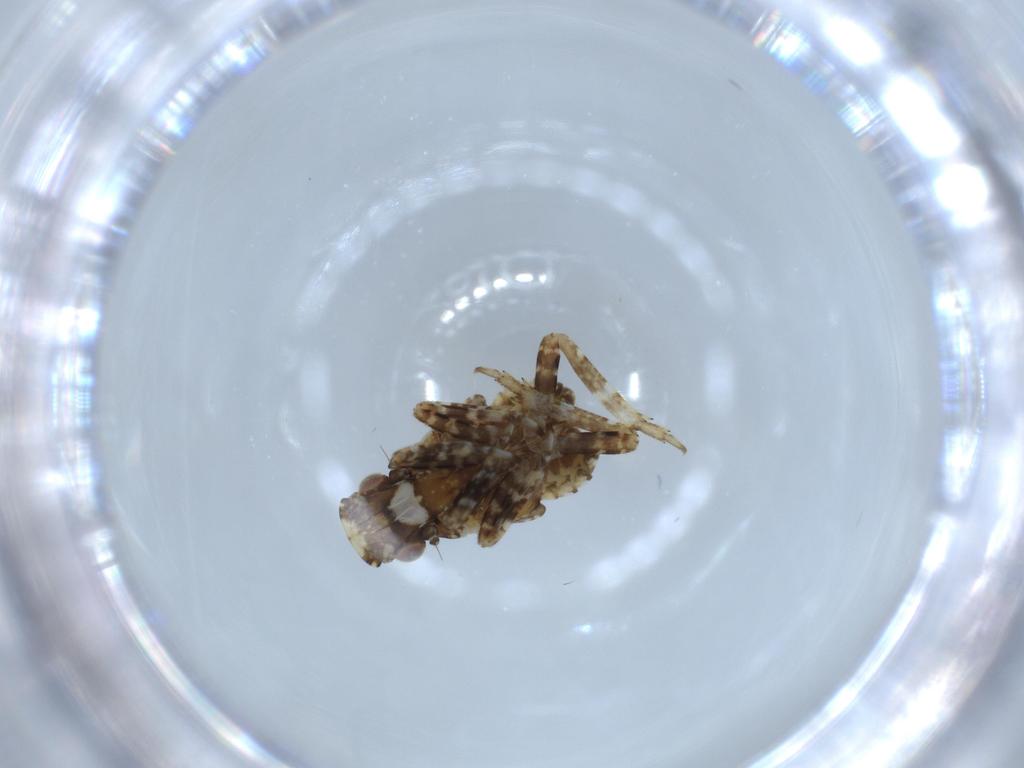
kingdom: Animalia
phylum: Arthropoda
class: Insecta
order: Hemiptera
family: Fulgoridae
